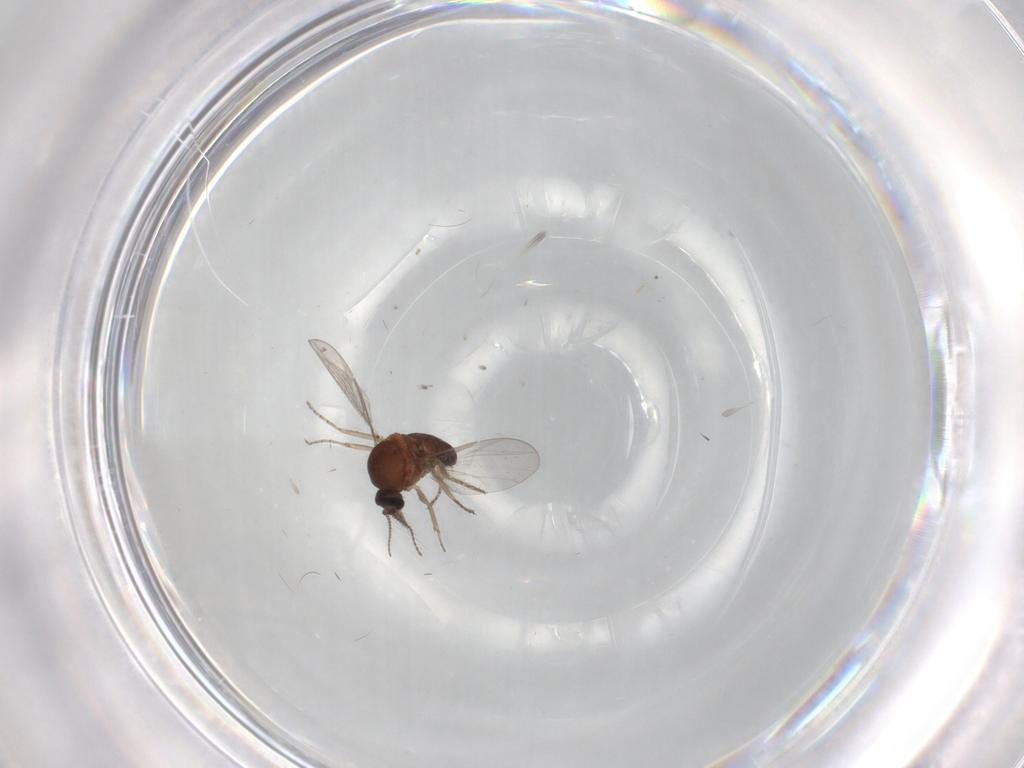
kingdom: Animalia
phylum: Arthropoda
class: Insecta
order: Diptera
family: Ceratopogonidae
